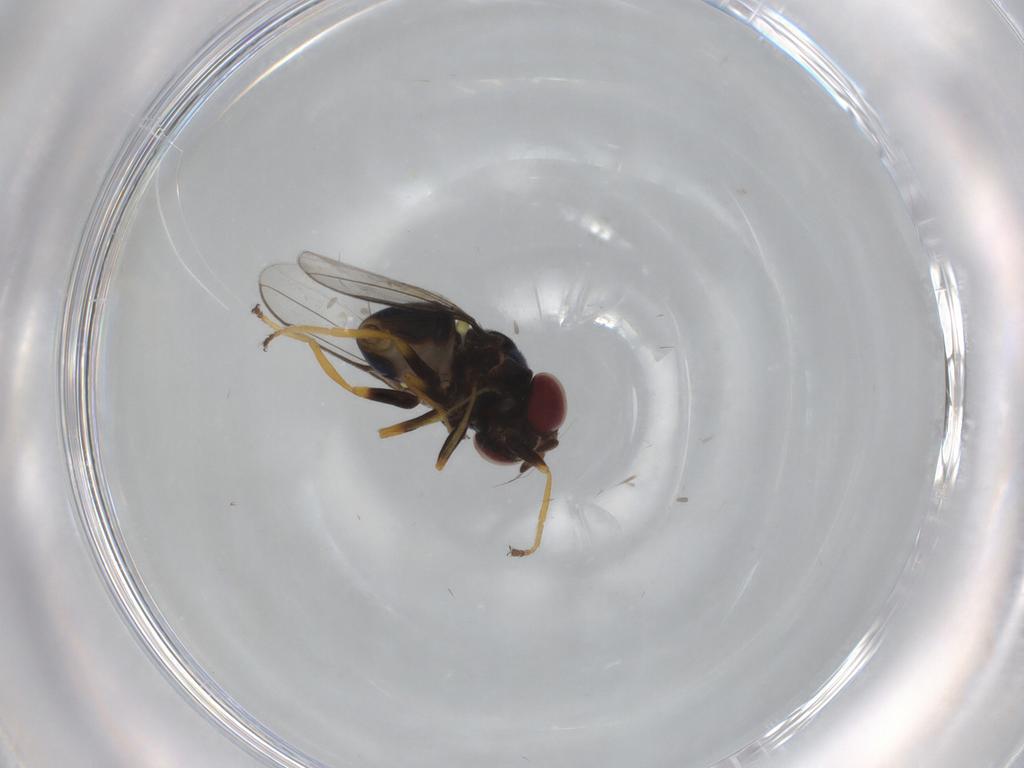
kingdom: Animalia
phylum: Arthropoda
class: Insecta
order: Diptera
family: Chloropidae
